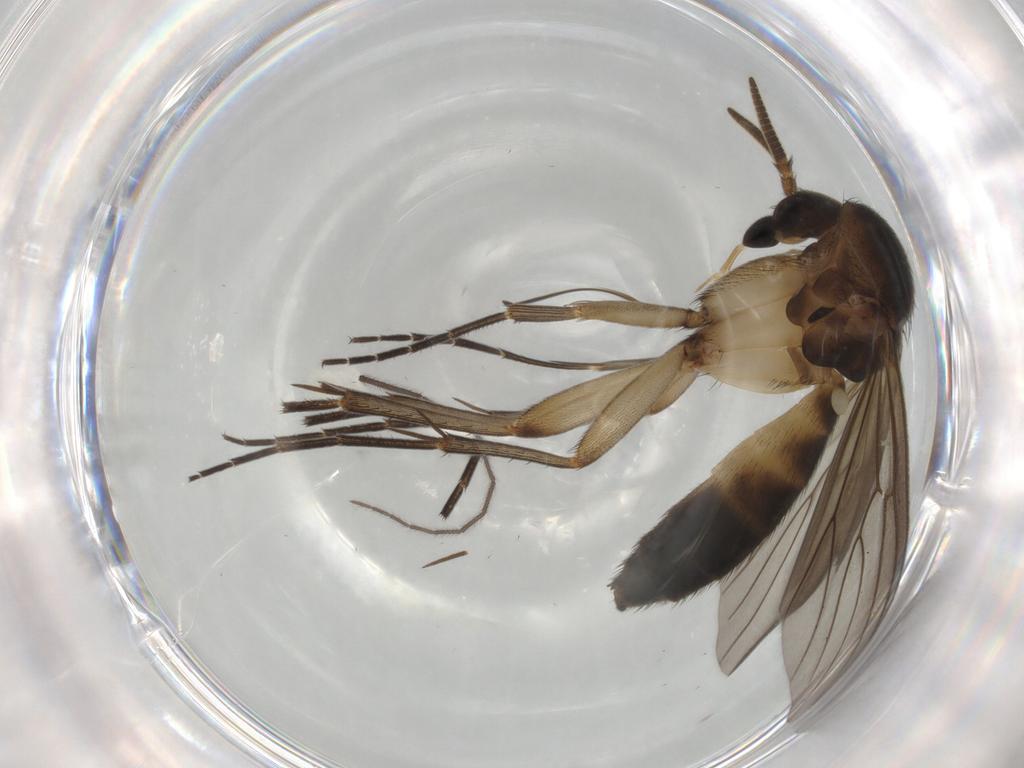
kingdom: Animalia
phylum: Arthropoda
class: Insecta
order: Diptera
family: Mycetophilidae
